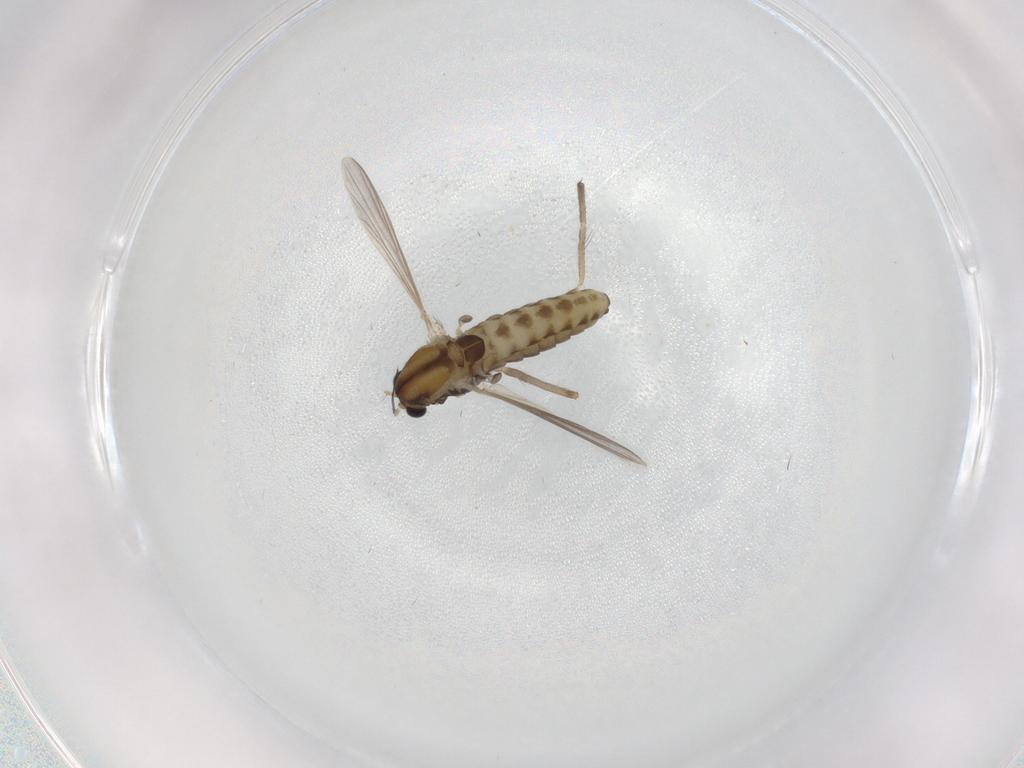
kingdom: Animalia
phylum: Arthropoda
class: Insecta
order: Diptera
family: Chironomidae
